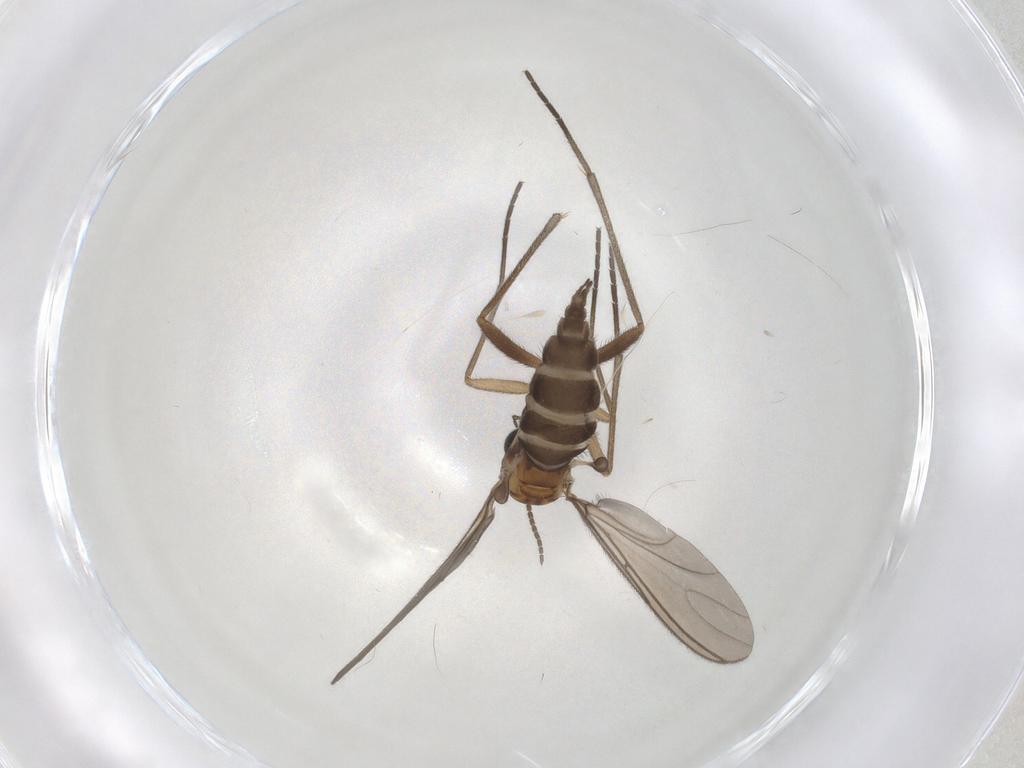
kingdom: Animalia
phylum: Arthropoda
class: Insecta
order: Diptera
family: Sciaridae
